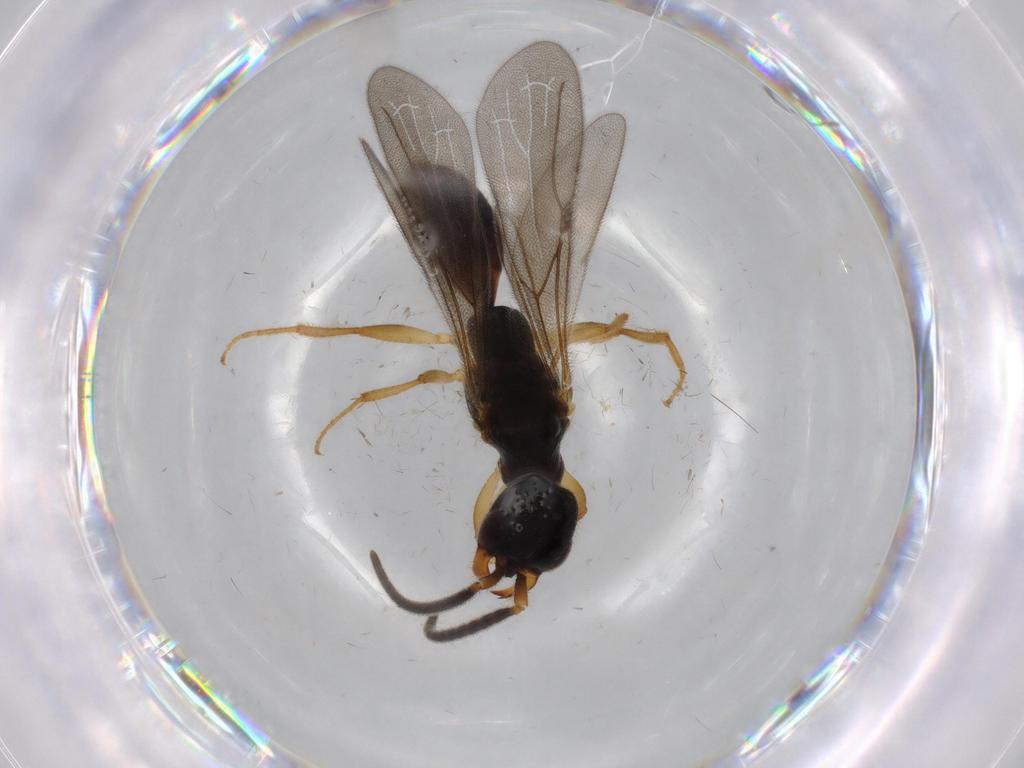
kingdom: Animalia
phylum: Arthropoda
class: Insecta
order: Hymenoptera
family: Bethylidae
